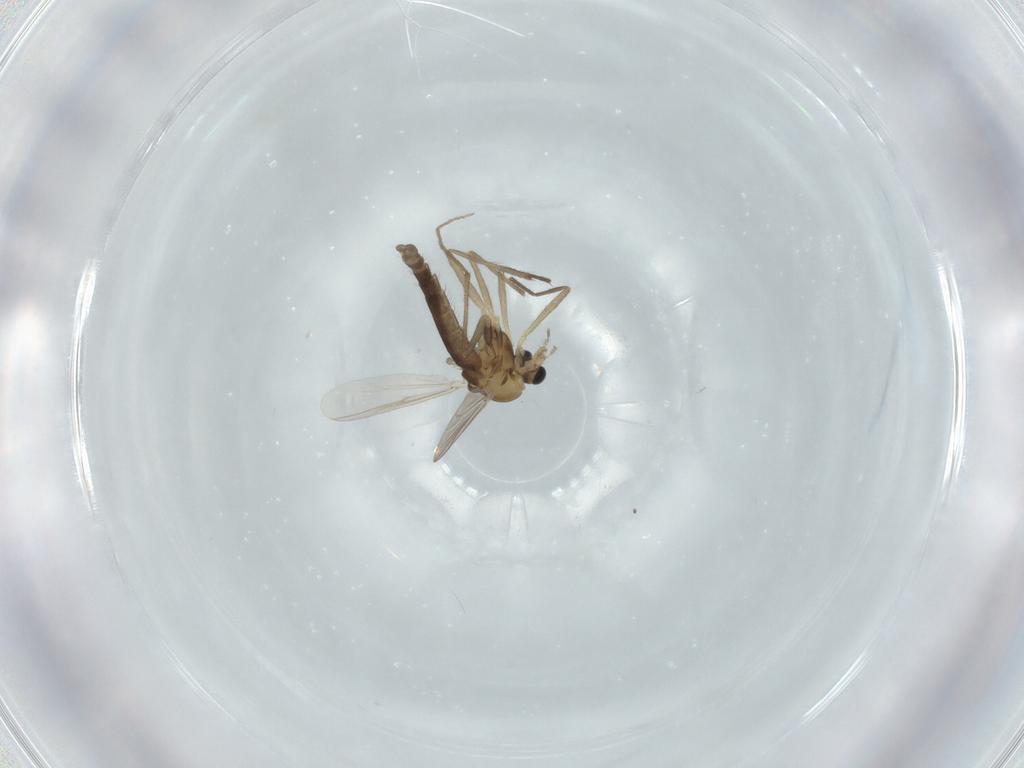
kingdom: Animalia
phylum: Arthropoda
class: Insecta
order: Diptera
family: Chironomidae
